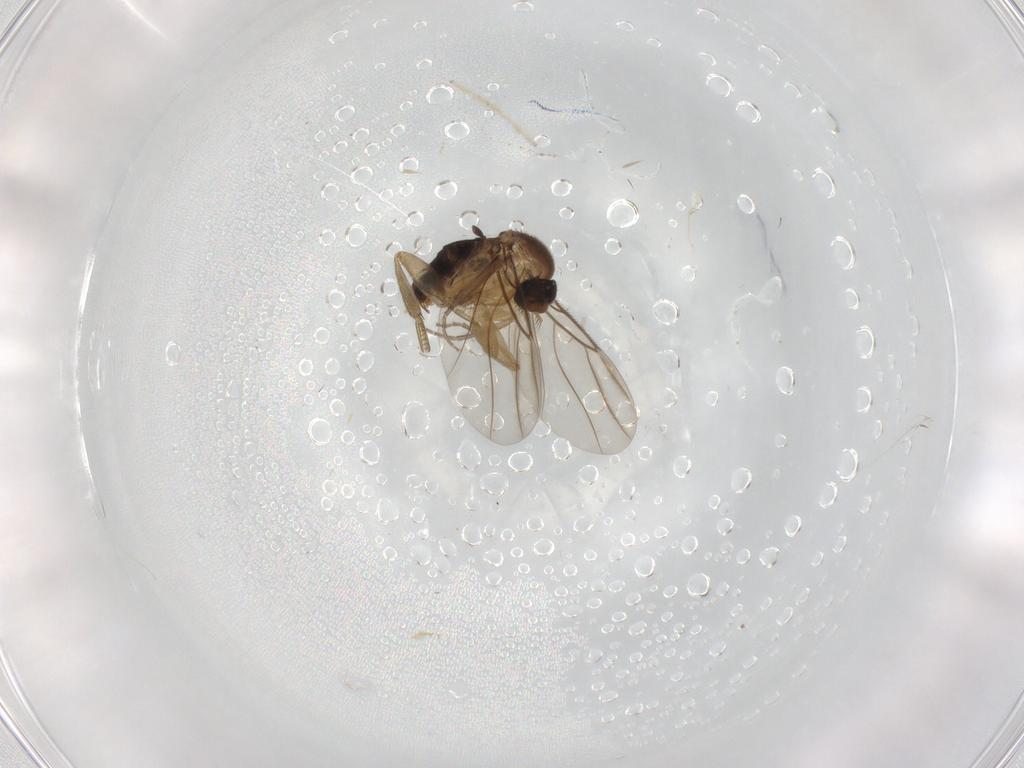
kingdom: Animalia
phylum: Arthropoda
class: Insecta
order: Diptera
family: Phoridae
